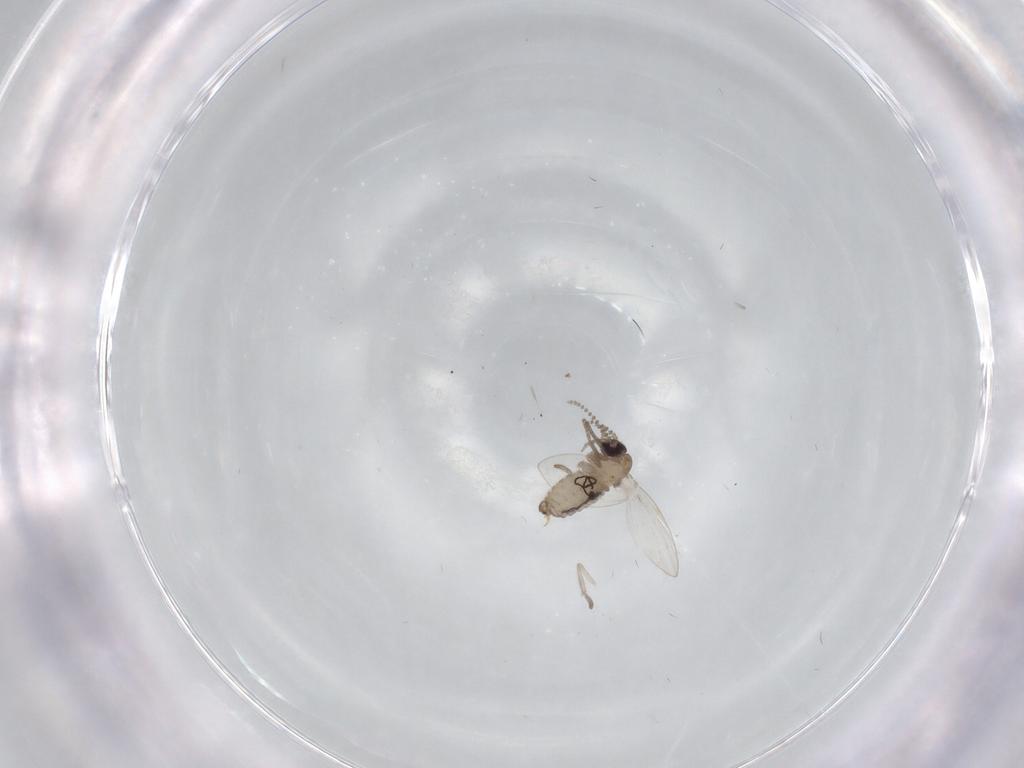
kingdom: Animalia
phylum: Arthropoda
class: Insecta
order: Diptera
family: Psychodidae
